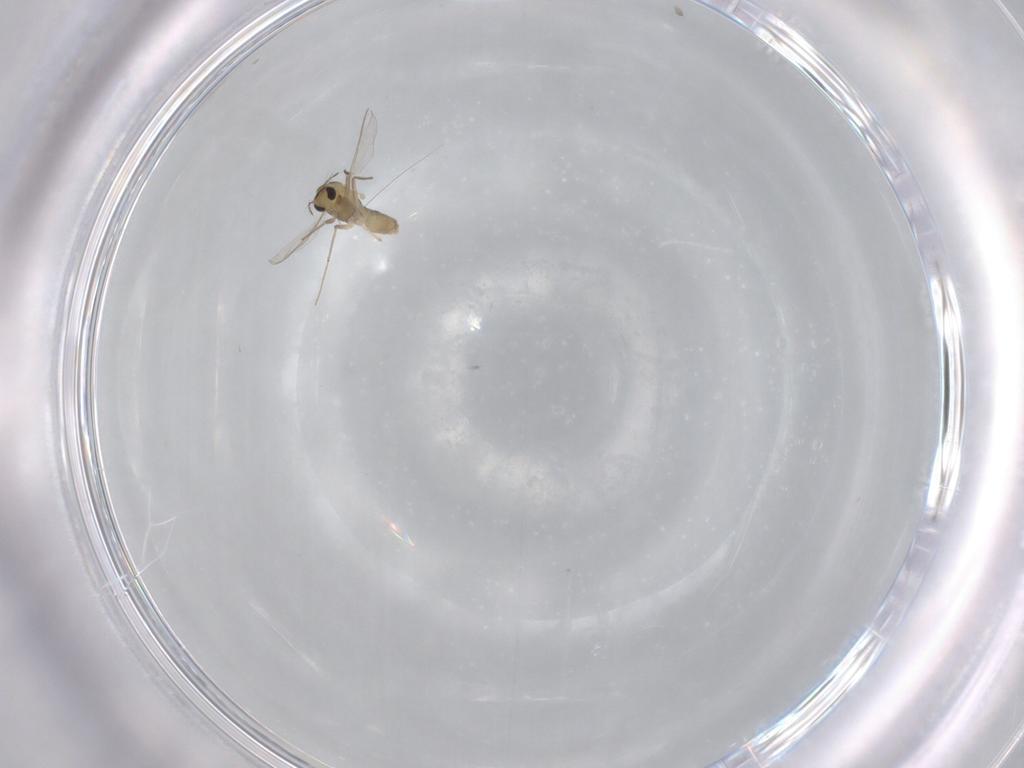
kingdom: Animalia
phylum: Arthropoda
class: Insecta
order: Diptera
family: Chironomidae
